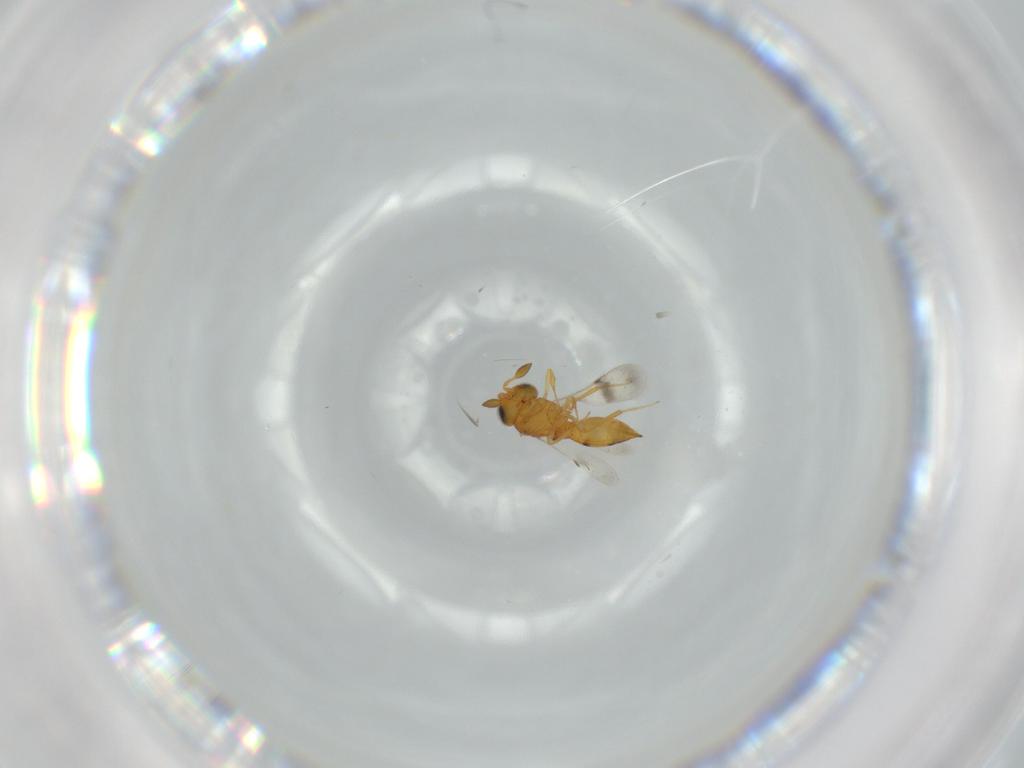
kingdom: Animalia
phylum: Arthropoda
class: Insecta
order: Hymenoptera
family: Scelionidae
